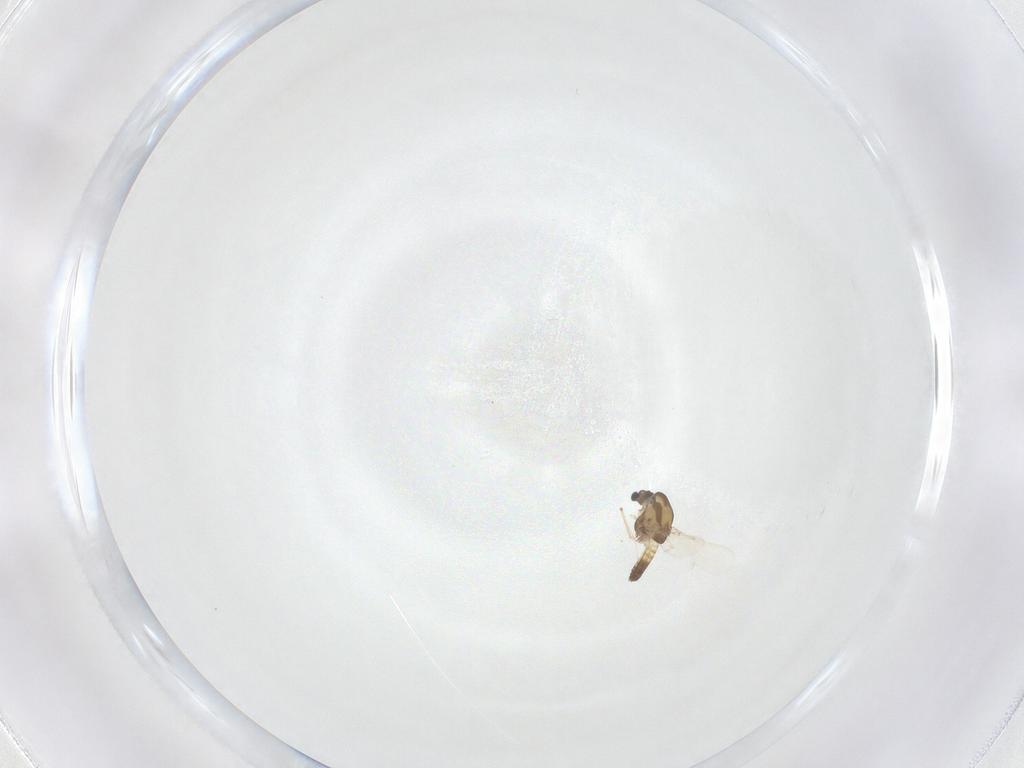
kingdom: Animalia
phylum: Arthropoda
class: Insecta
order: Diptera
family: Chironomidae
